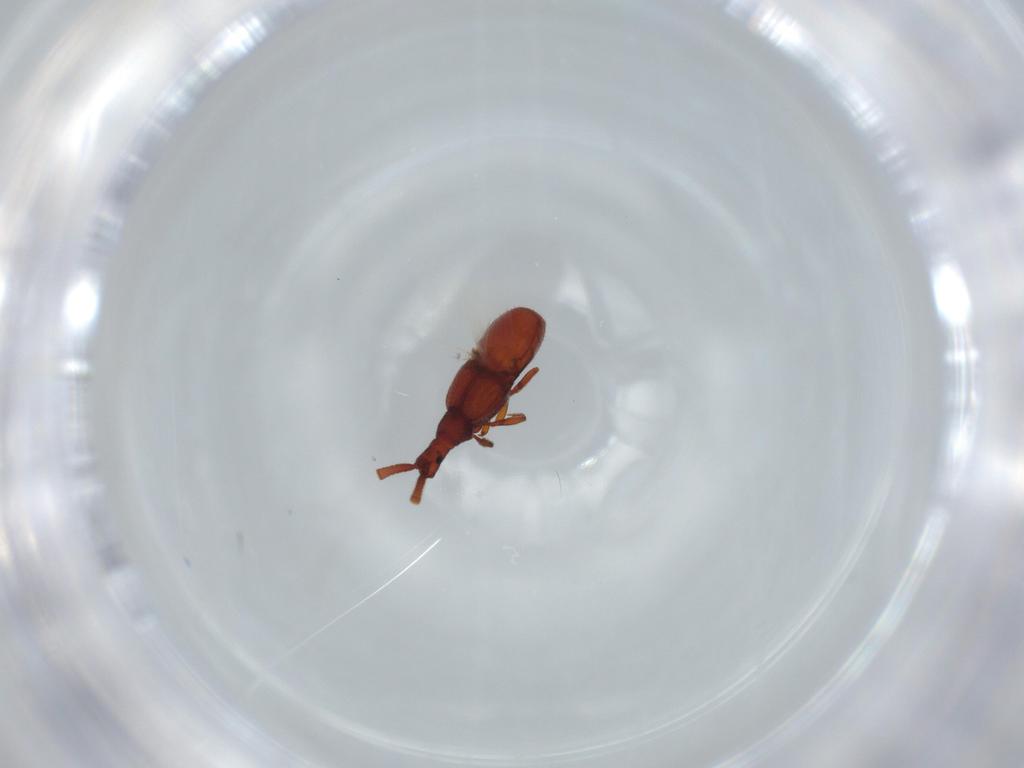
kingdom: Animalia
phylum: Arthropoda
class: Insecta
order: Coleoptera
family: Staphylinidae
